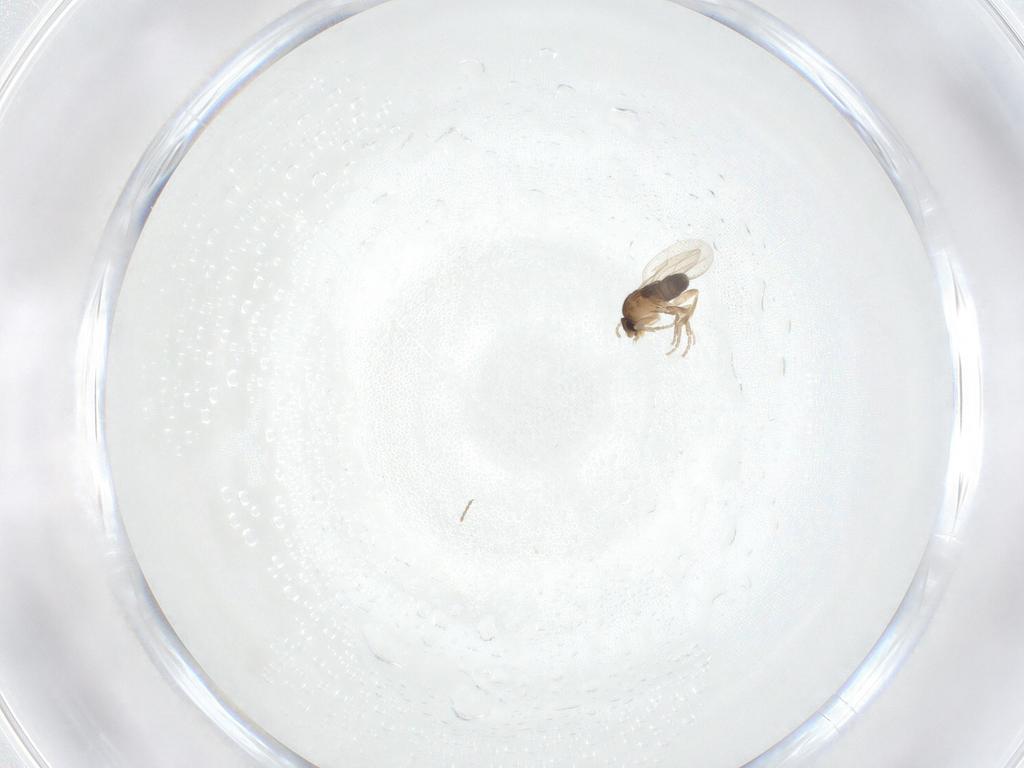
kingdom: Animalia
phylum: Arthropoda
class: Insecta
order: Diptera
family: Phoridae
